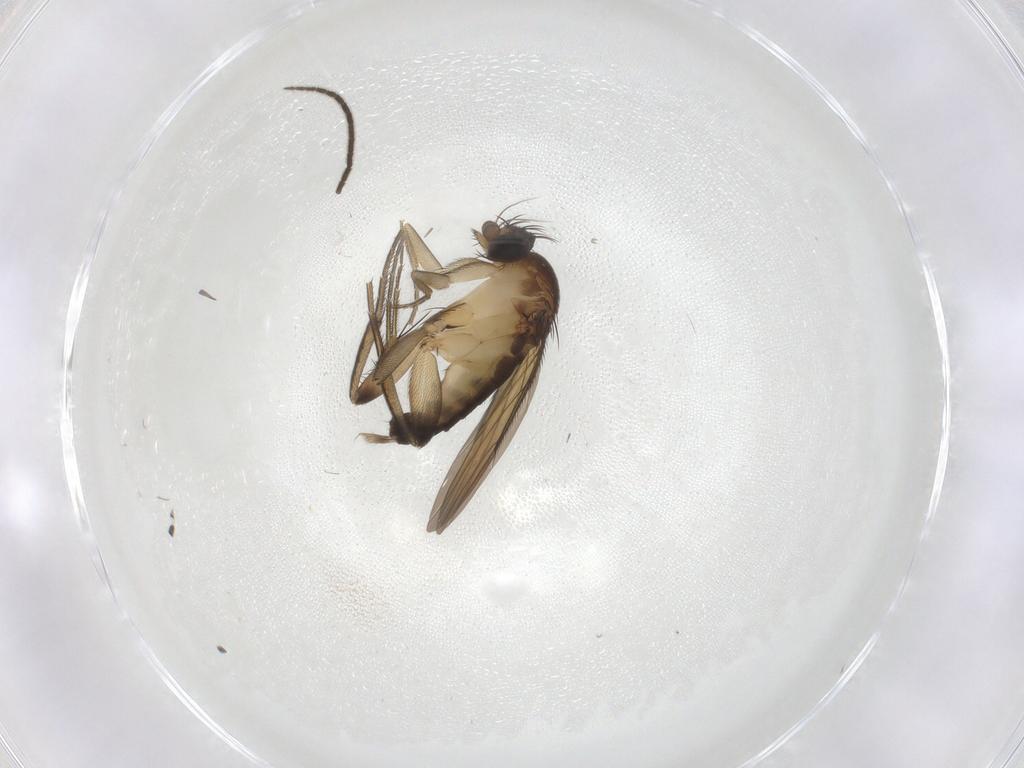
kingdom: Animalia
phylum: Arthropoda
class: Insecta
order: Diptera
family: Phoridae
